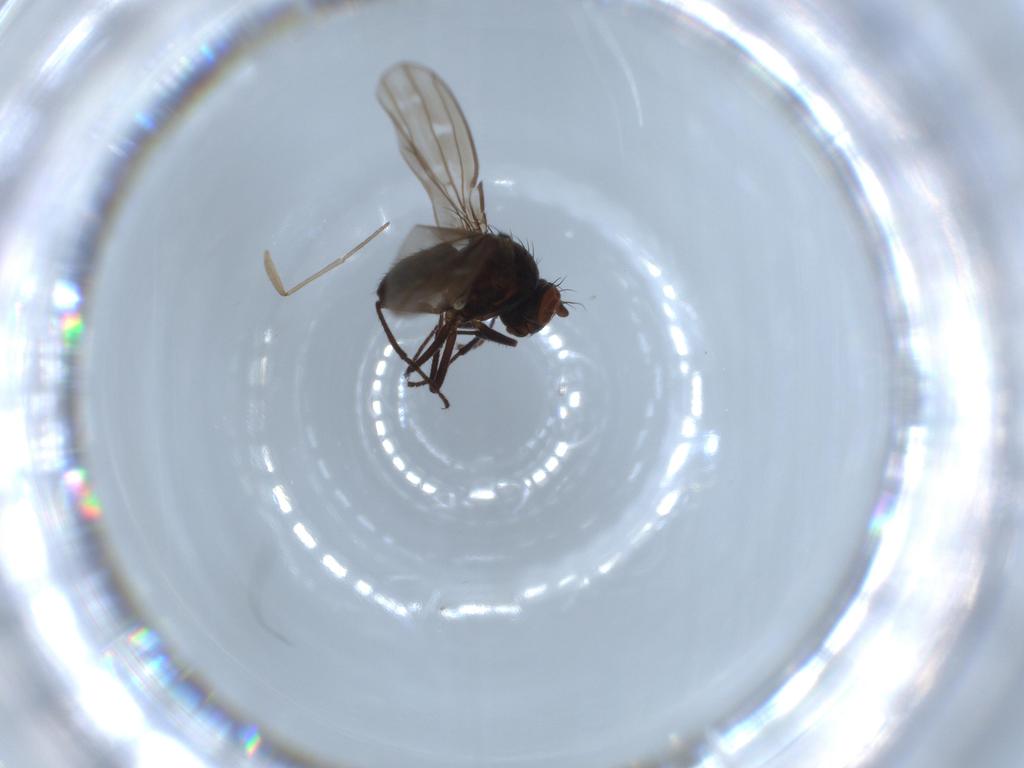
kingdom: Animalia
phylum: Arthropoda
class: Insecta
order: Diptera
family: Ephydridae
